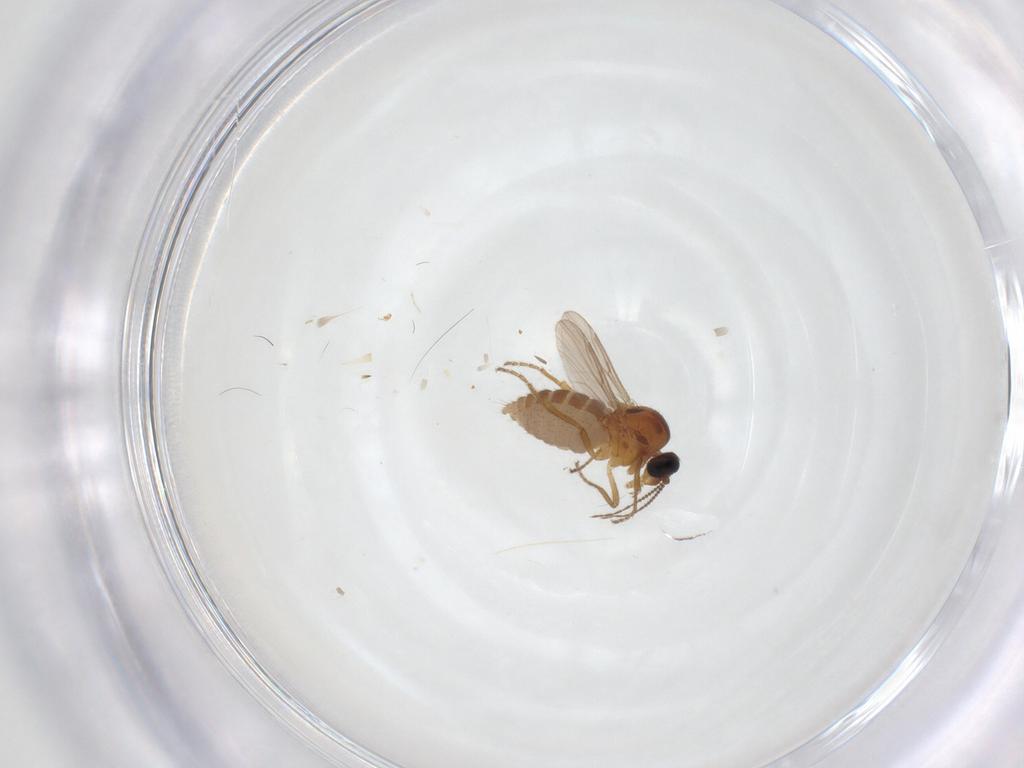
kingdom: Animalia
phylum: Arthropoda
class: Insecta
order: Diptera
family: Ceratopogonidae
